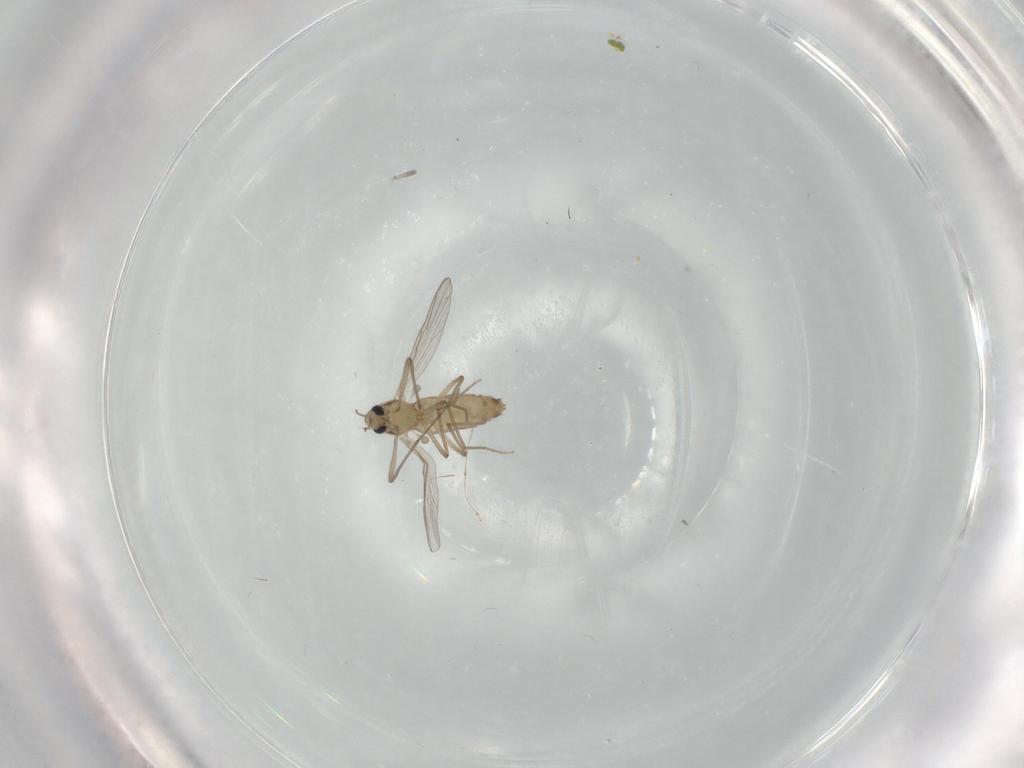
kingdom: Animalia
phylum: Arthropoda
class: Insecta
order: Diptera
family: Chironomidae
